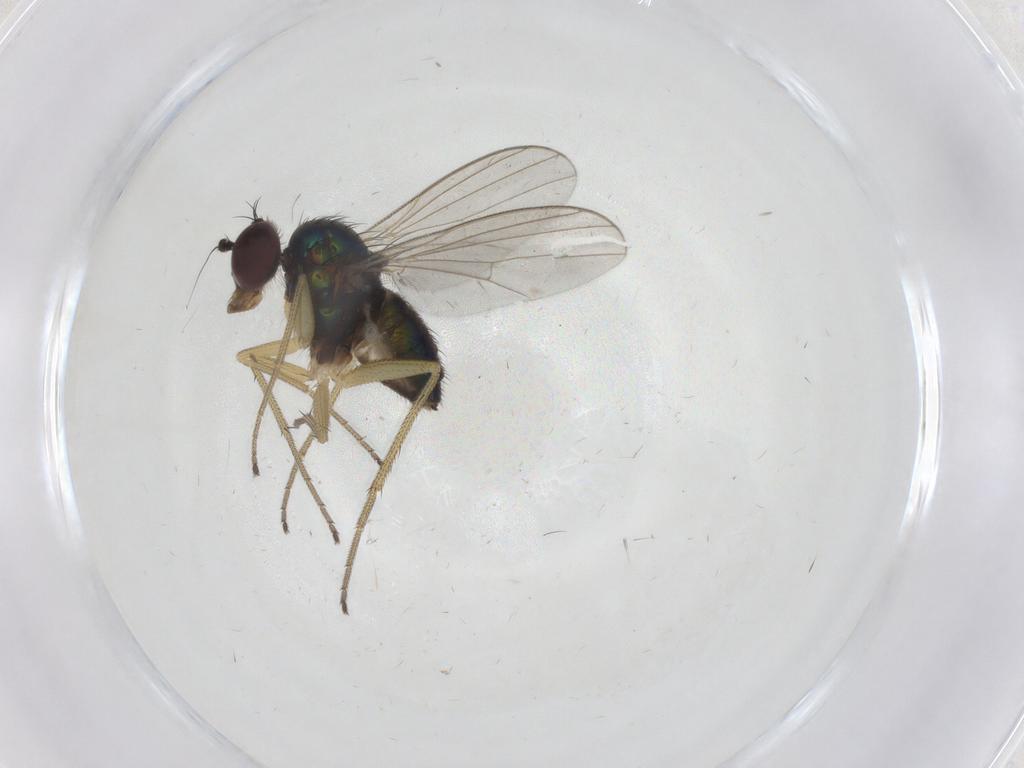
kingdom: Animalia
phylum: Arthropoda
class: Insecta
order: Diptera
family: Dolichopodidae
